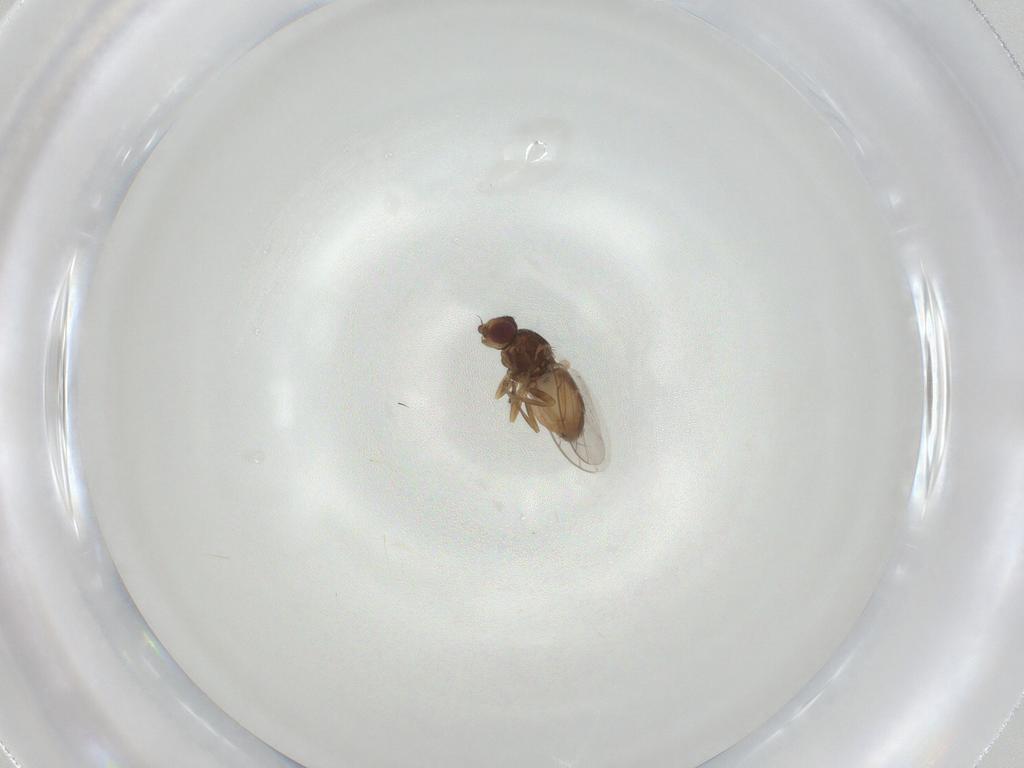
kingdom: Animalia
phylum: Arthropoda
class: Insecta
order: Diptera
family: Chloropidae
